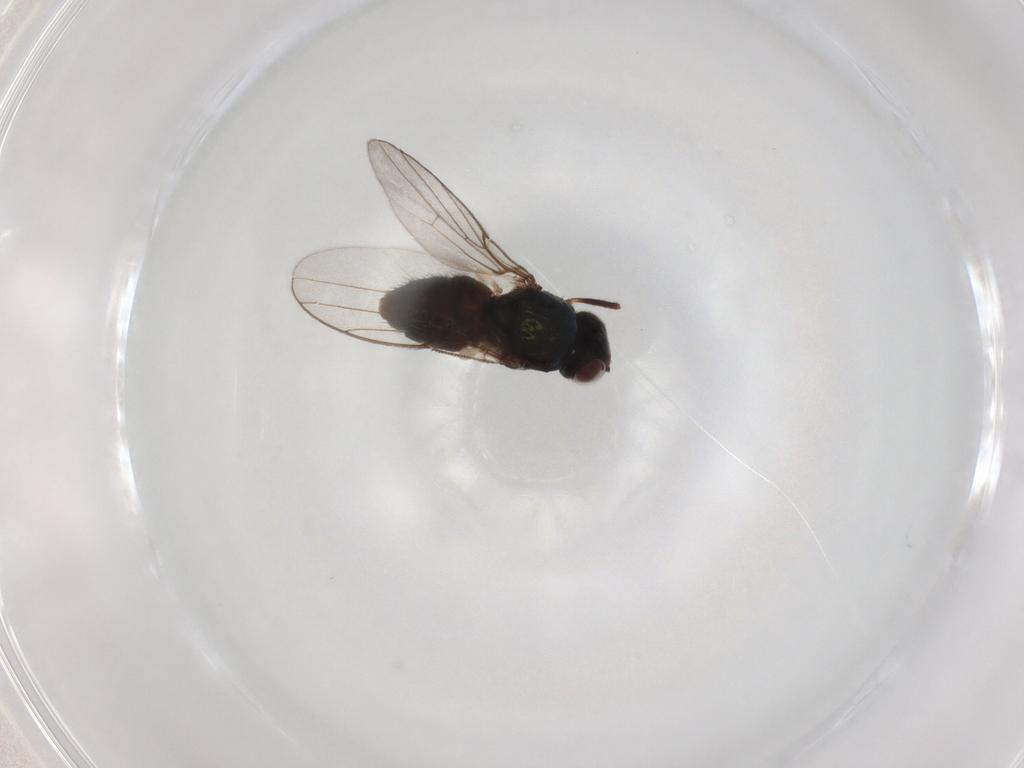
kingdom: Animalia
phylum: Arthropoda
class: Insecta
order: Diptera
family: Chloropidae
